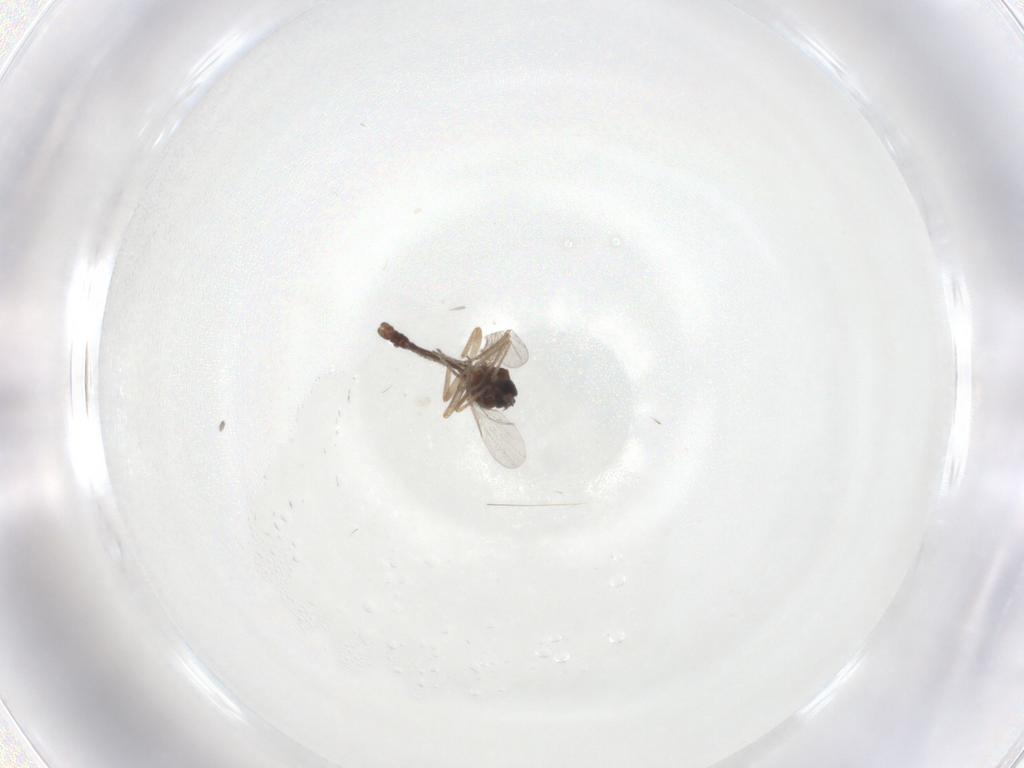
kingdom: Animalia
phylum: Arthropoda
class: Insecta
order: Diptera
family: Ceratopogonidae
